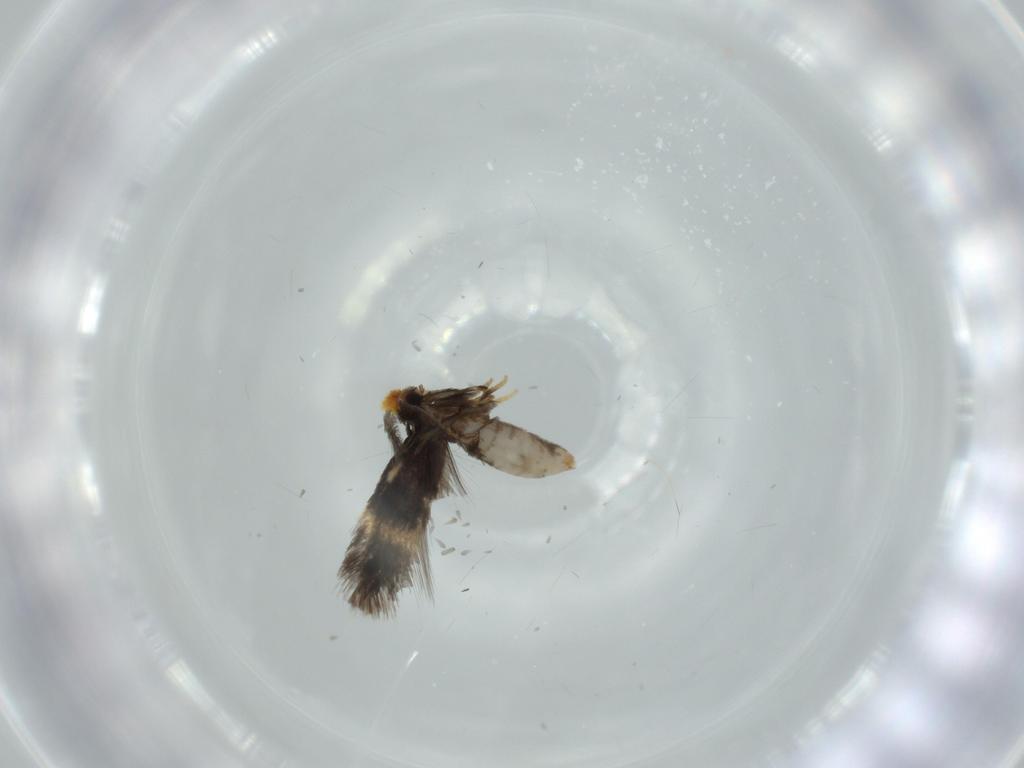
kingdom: Animalia
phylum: Arthropoda
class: Insecta
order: Lepidoptera
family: Nepticulidae
